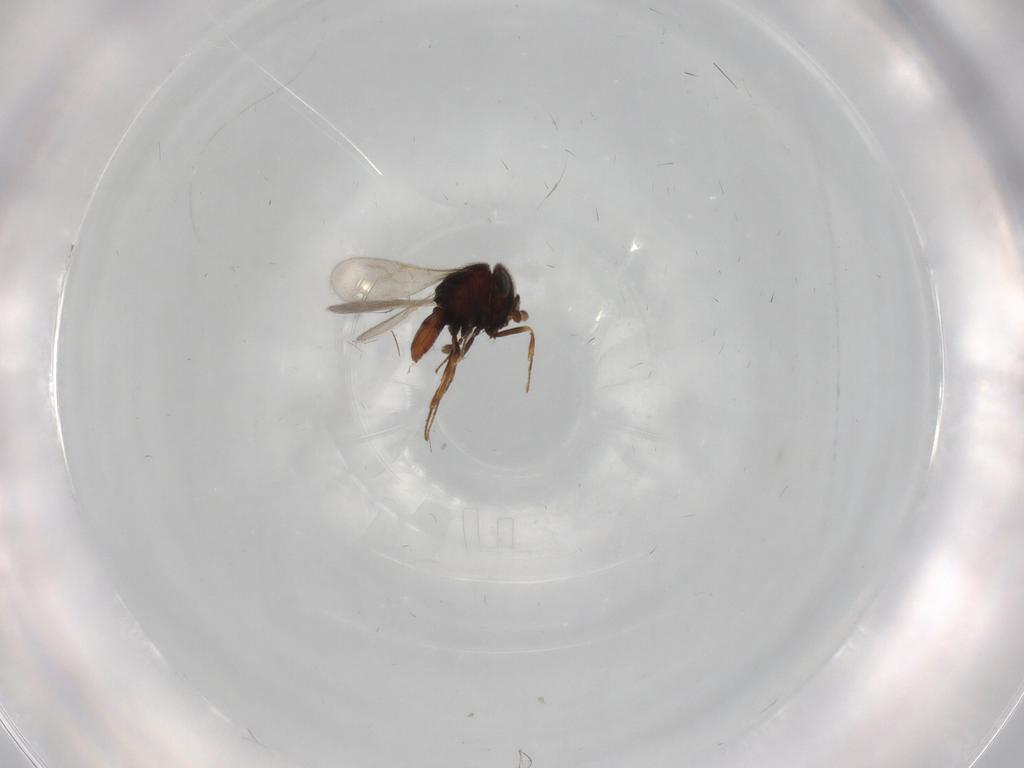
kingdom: Animalia
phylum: Arthropoda
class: Insecta
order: Hymenoptera
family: Scelionidae
